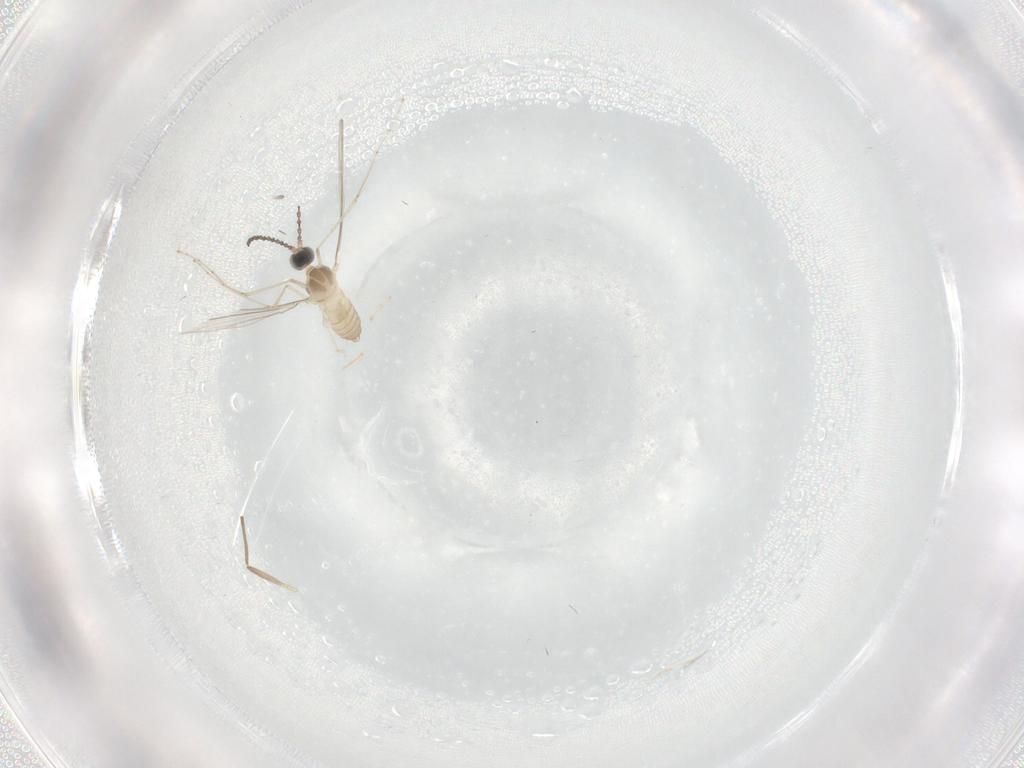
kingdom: Animalia
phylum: Arthropoda
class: Insecta
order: Diptera
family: Cecidomyiidae
